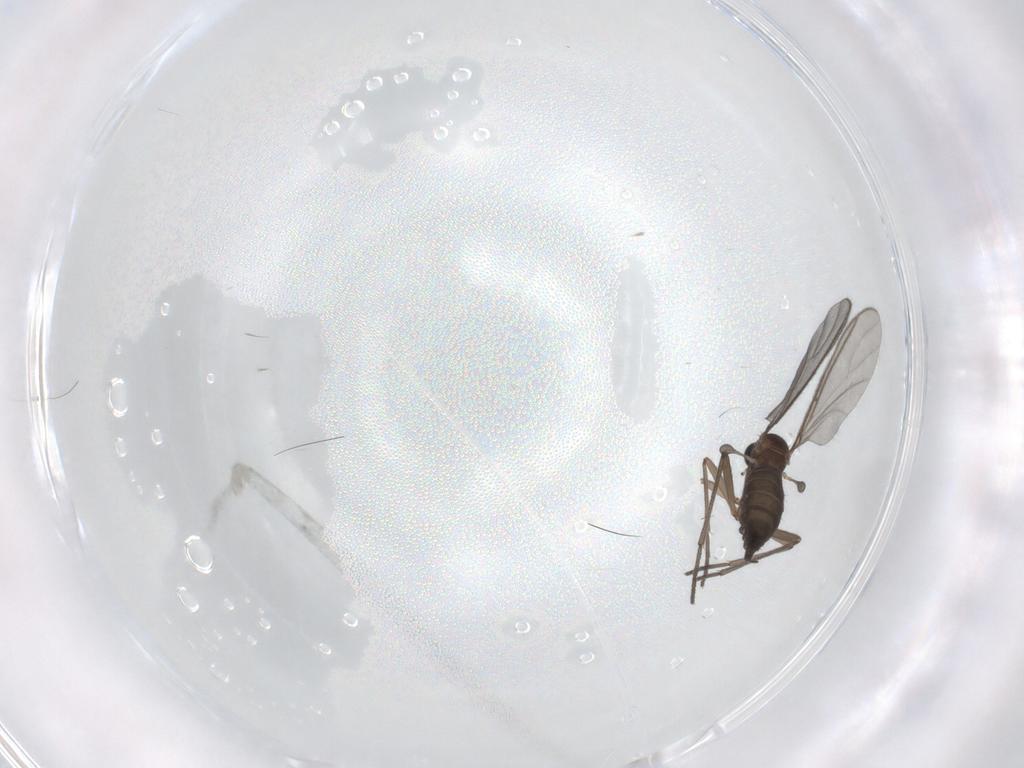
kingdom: Animalia
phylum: Arthropoda
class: Insecta
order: Diptera
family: Sciaridae
